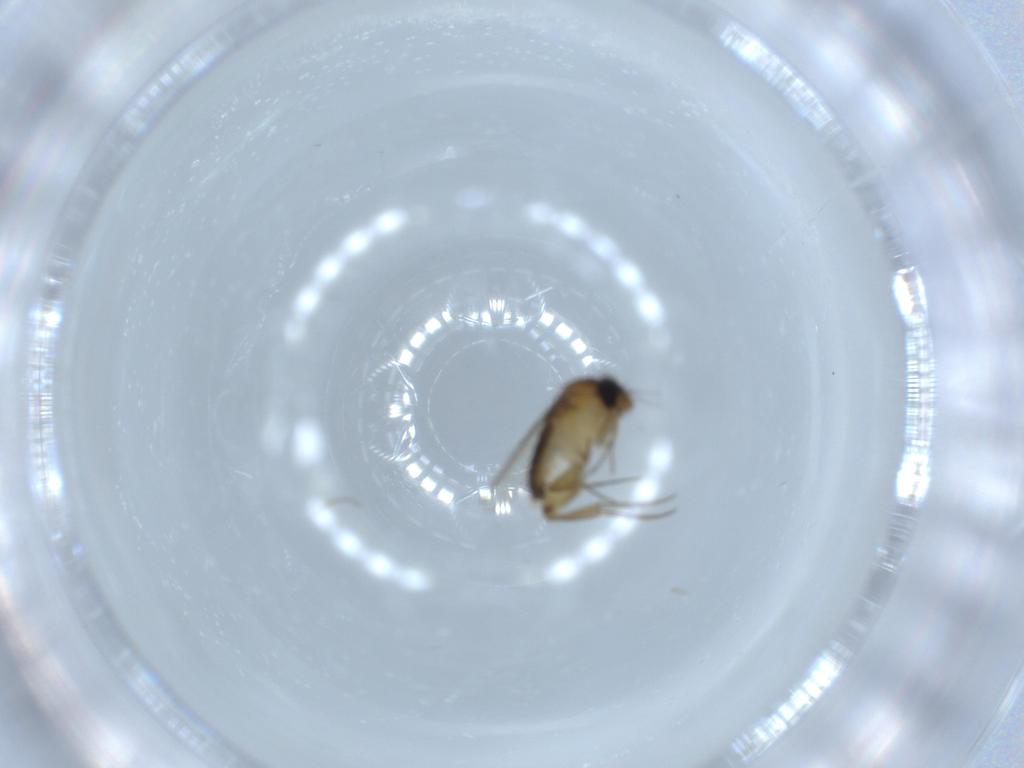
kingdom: Animalia
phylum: Arthropoda
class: Insecta
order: Diptera
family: Phoridae
